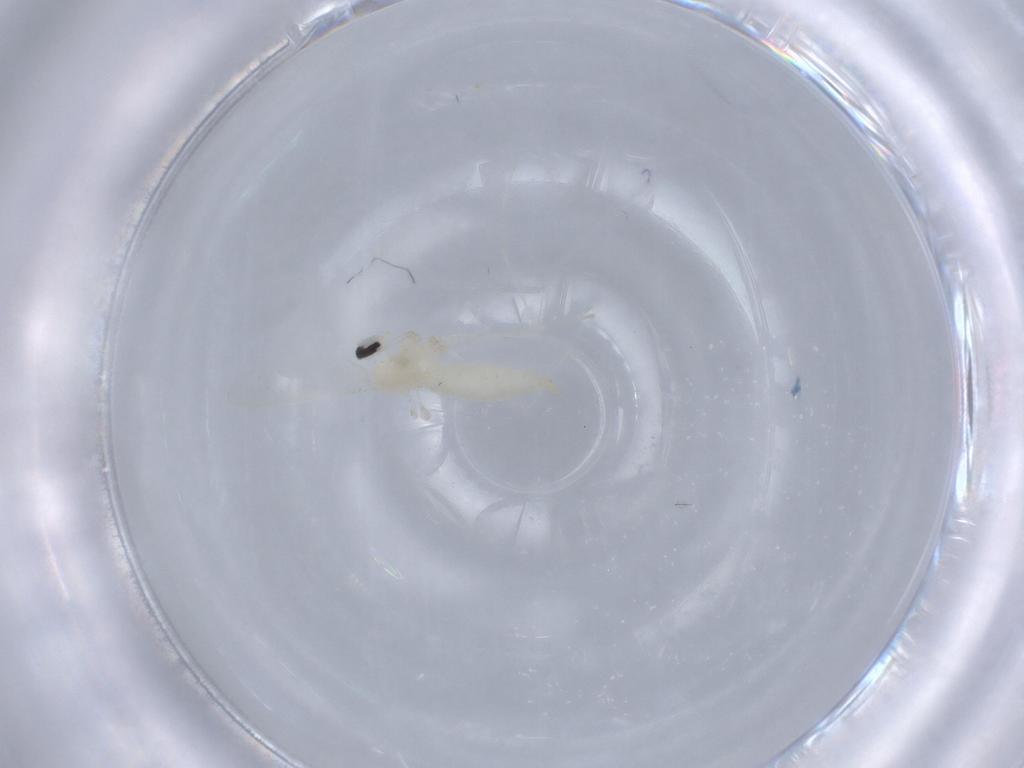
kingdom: Animalia
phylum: Arthropoda
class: Insecta
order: Diptera
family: Cecidomyiidae
